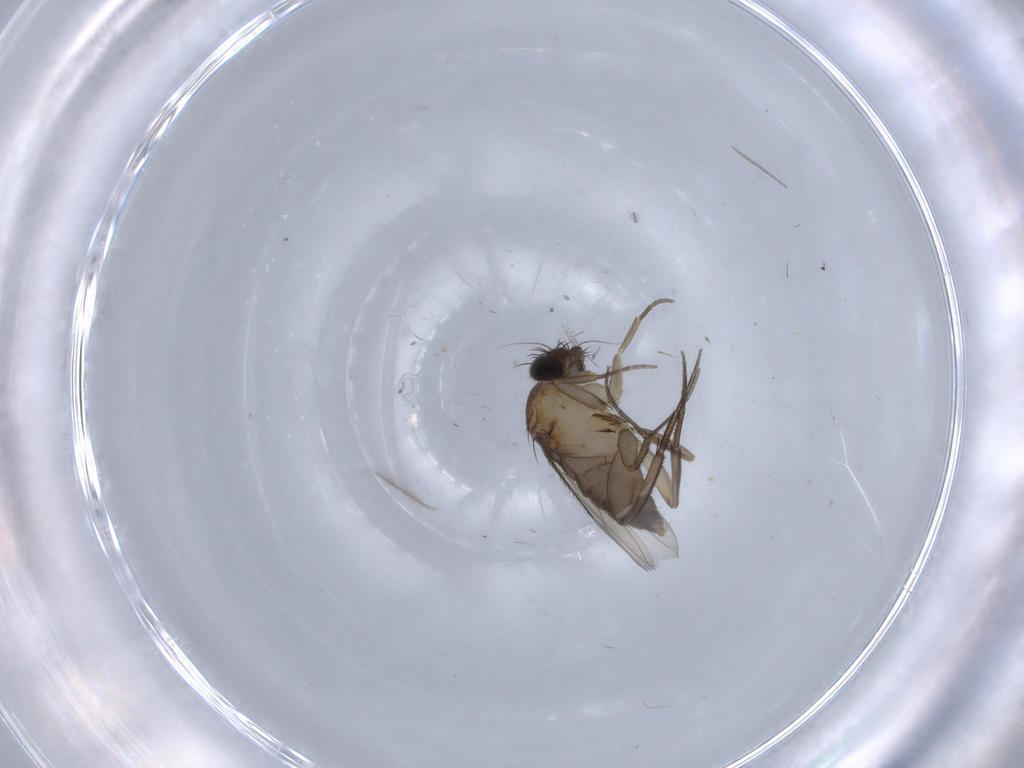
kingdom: Animalia
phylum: Arthropoda
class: Insecta
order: Diptera
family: Phoridae
